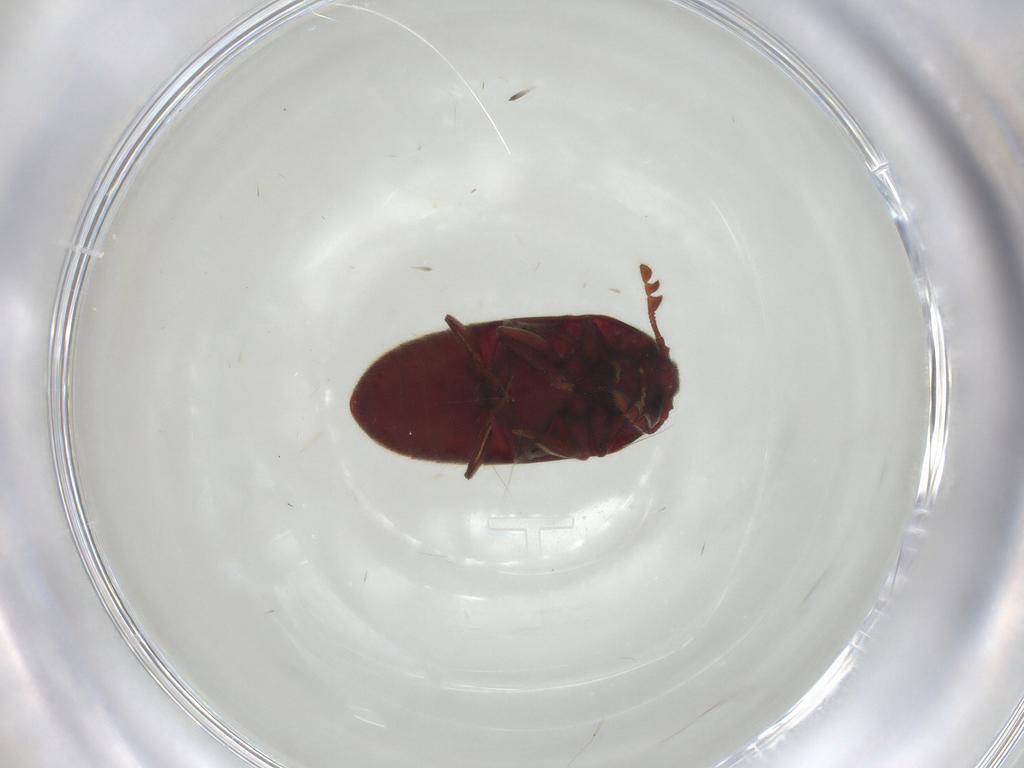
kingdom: Animalia
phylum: Arthropoda
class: Insecta
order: Coleoptera
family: Throscidae
